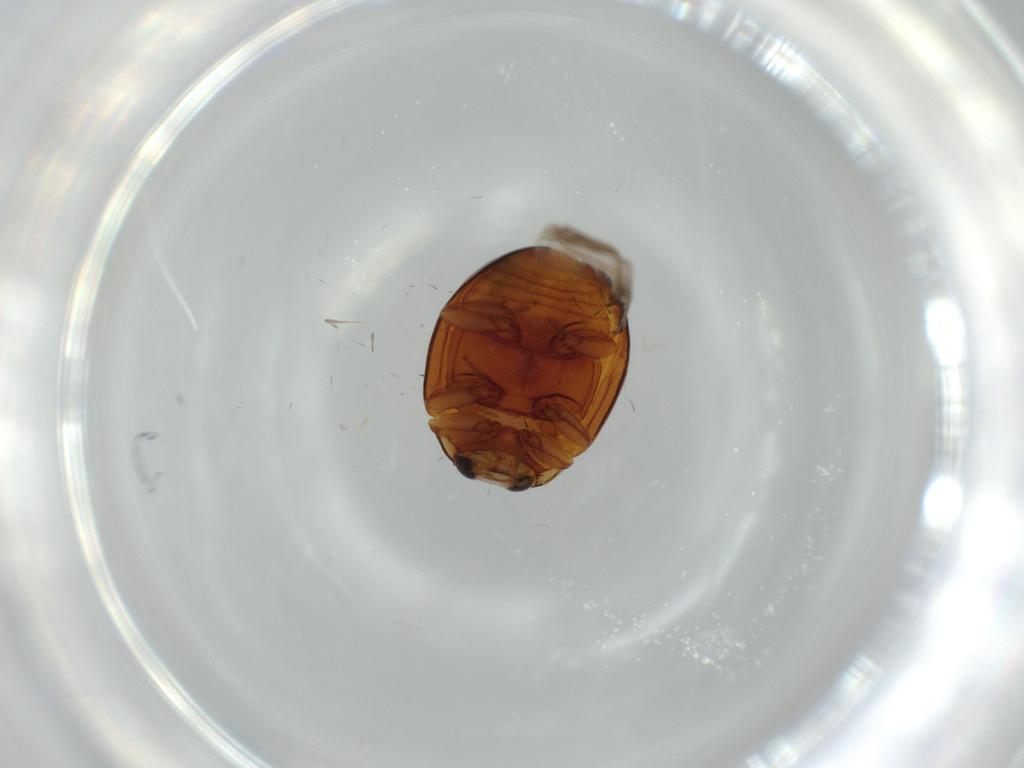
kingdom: Animalia
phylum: Arthropoda
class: Insecta
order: Coleoptera
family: Coccinellidae
